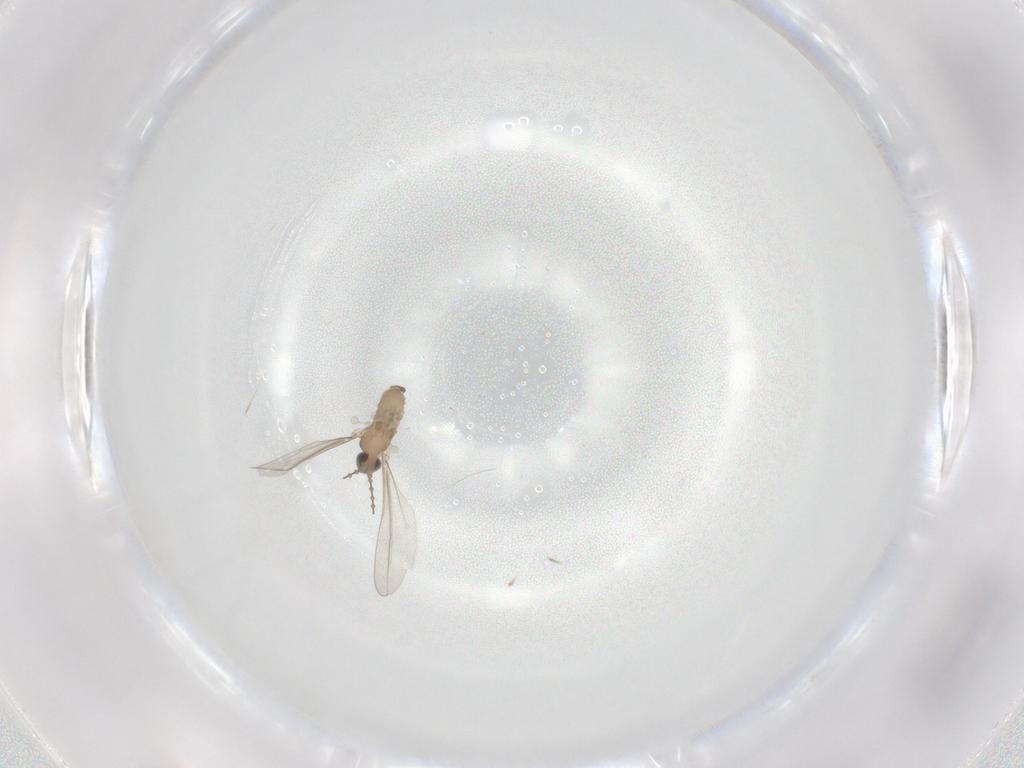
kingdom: Animalia
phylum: Arthropoda
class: Insecta
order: Diptera
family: Cecidomyiidae
